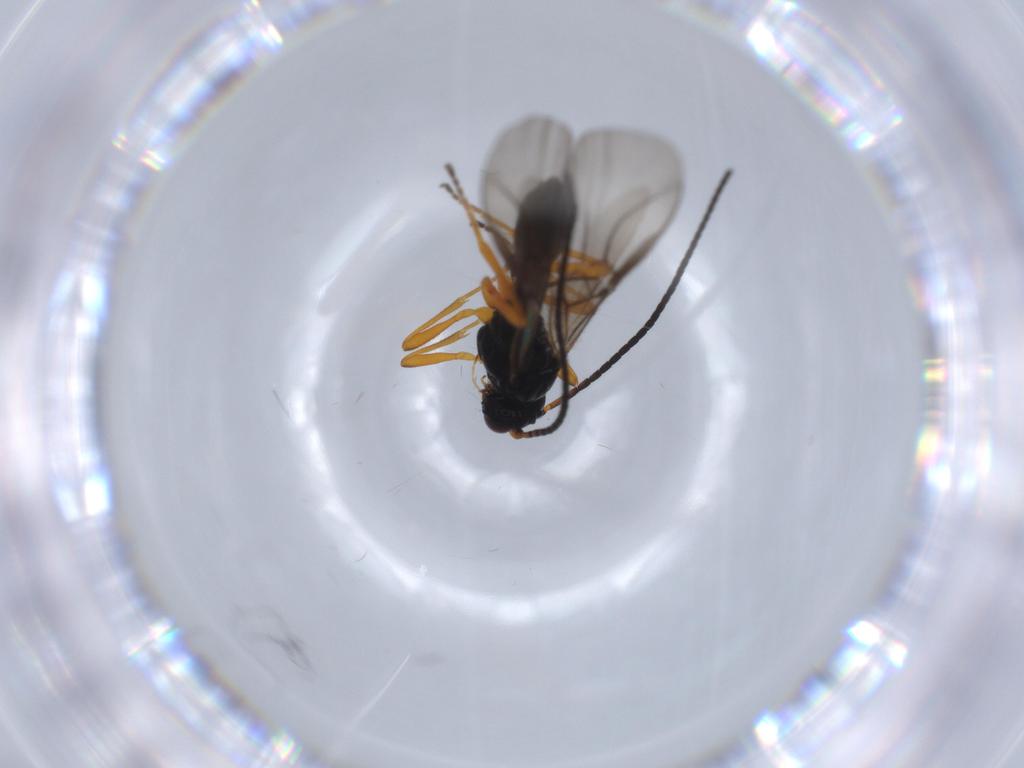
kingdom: Animalia
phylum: Arthropoda
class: Insecta
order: Hymenoptera
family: Braconidae
